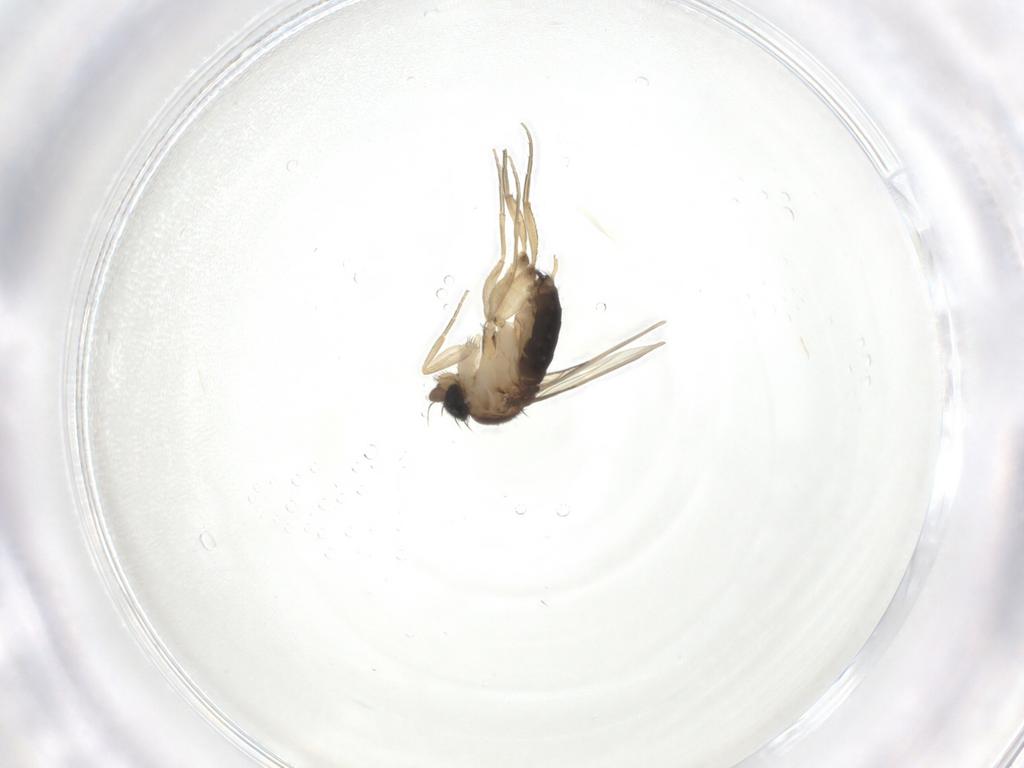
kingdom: Animalia
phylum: Arthropoda
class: Insecta
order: Diptera
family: Phoridae
